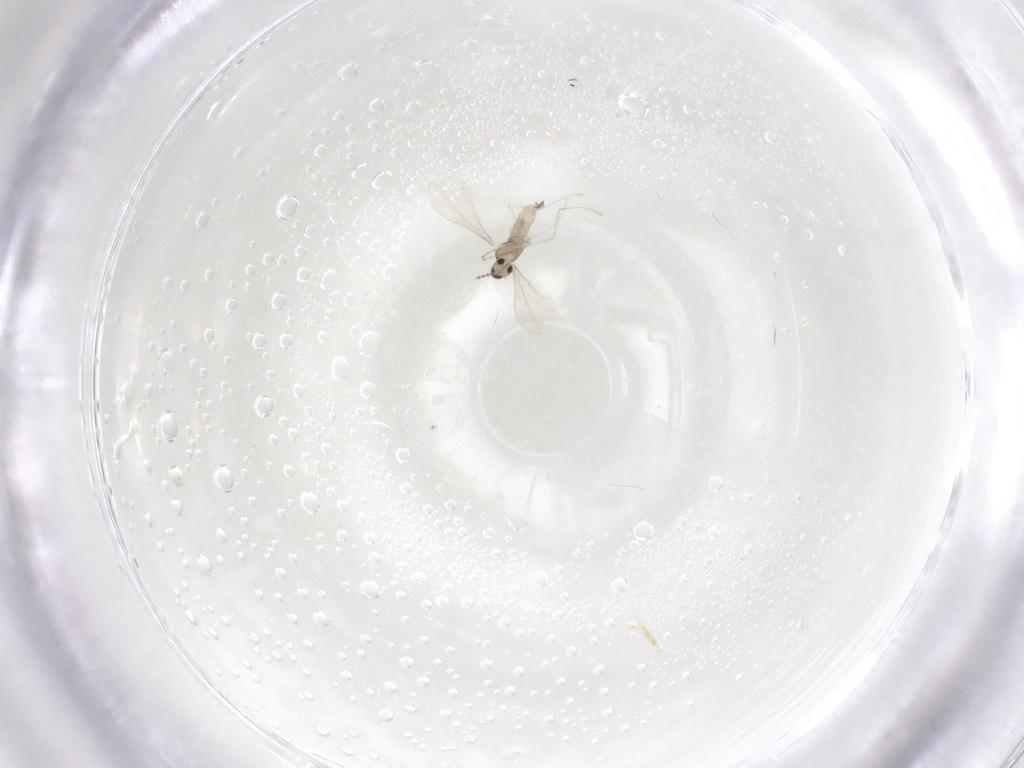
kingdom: Animalia
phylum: Arthropoda
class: Insecta
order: Diptera
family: Cecidomyiidae
